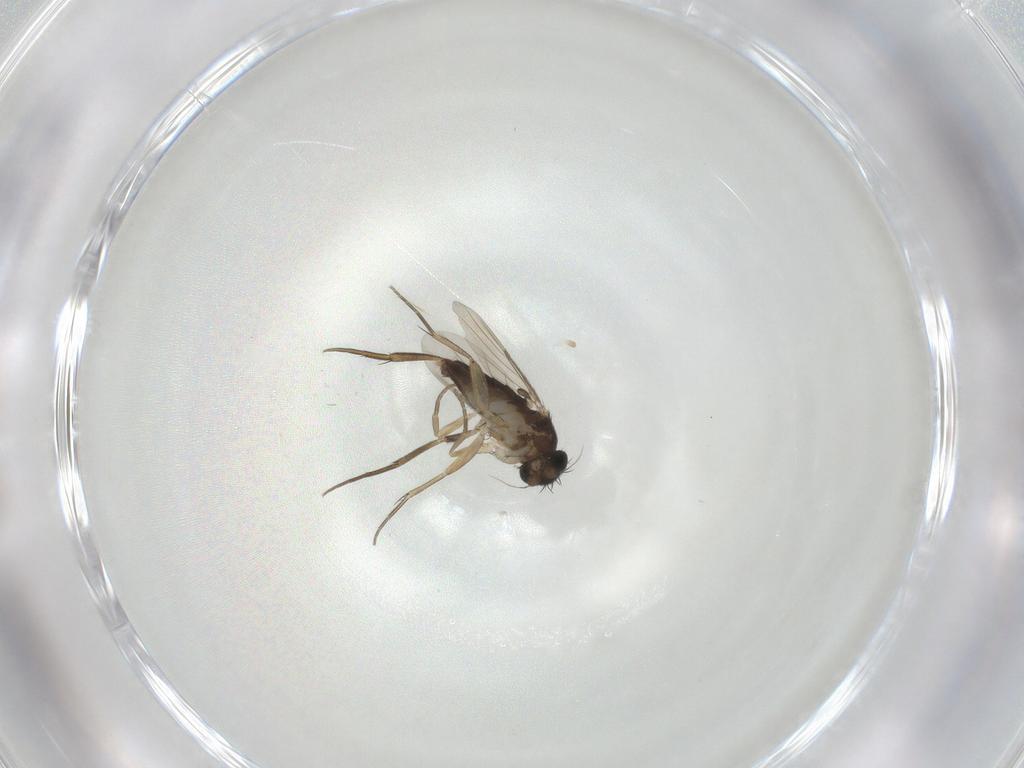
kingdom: Animalia
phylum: Arthropoda
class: Insecta
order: Diptera
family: Phoridae
